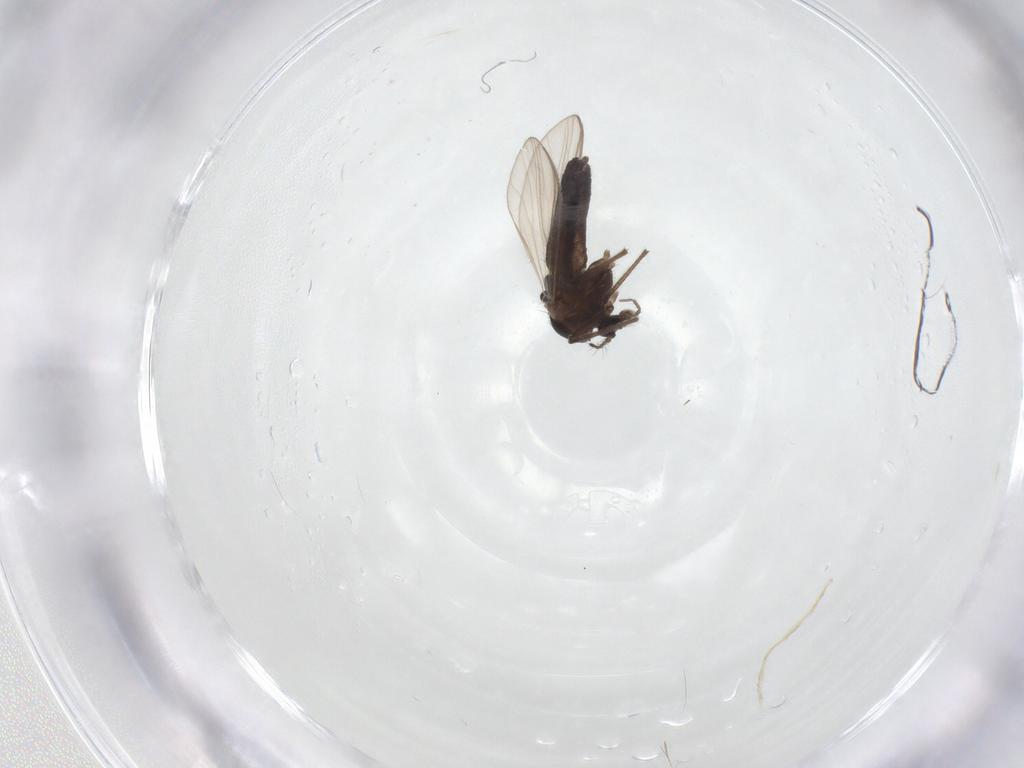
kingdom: Animalia
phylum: Arthropoda
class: Insecta
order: Diptera
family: Chironomidae
